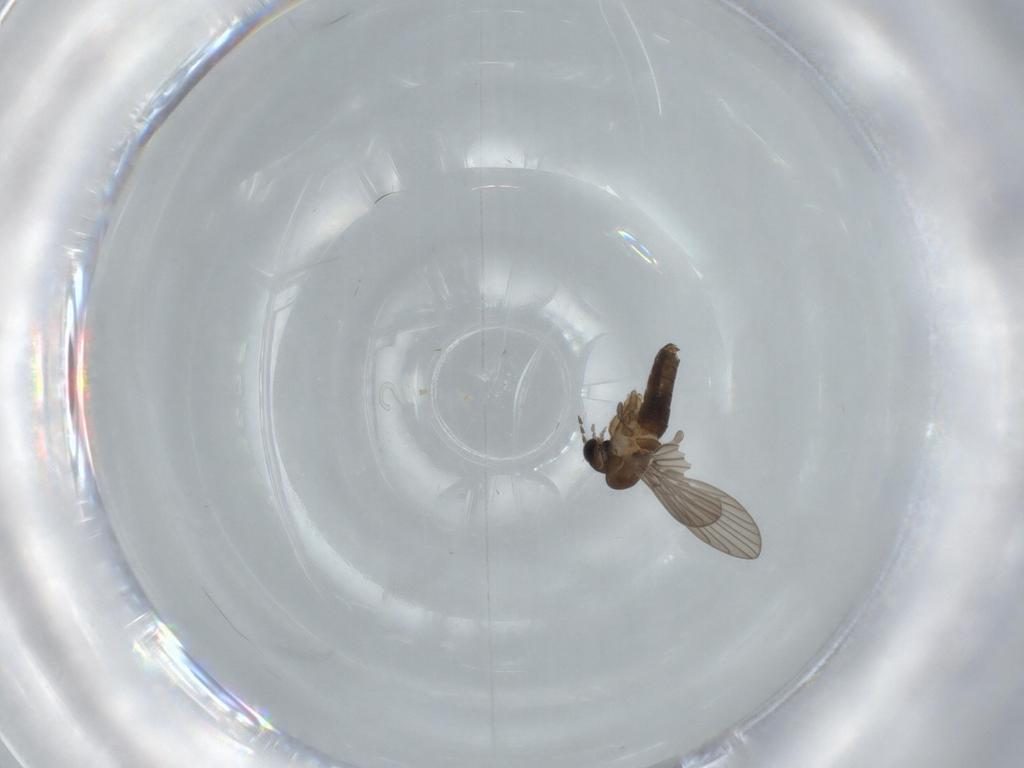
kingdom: Animalia
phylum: Arthropoda
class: Insecta
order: Diptera
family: Psychodidae
